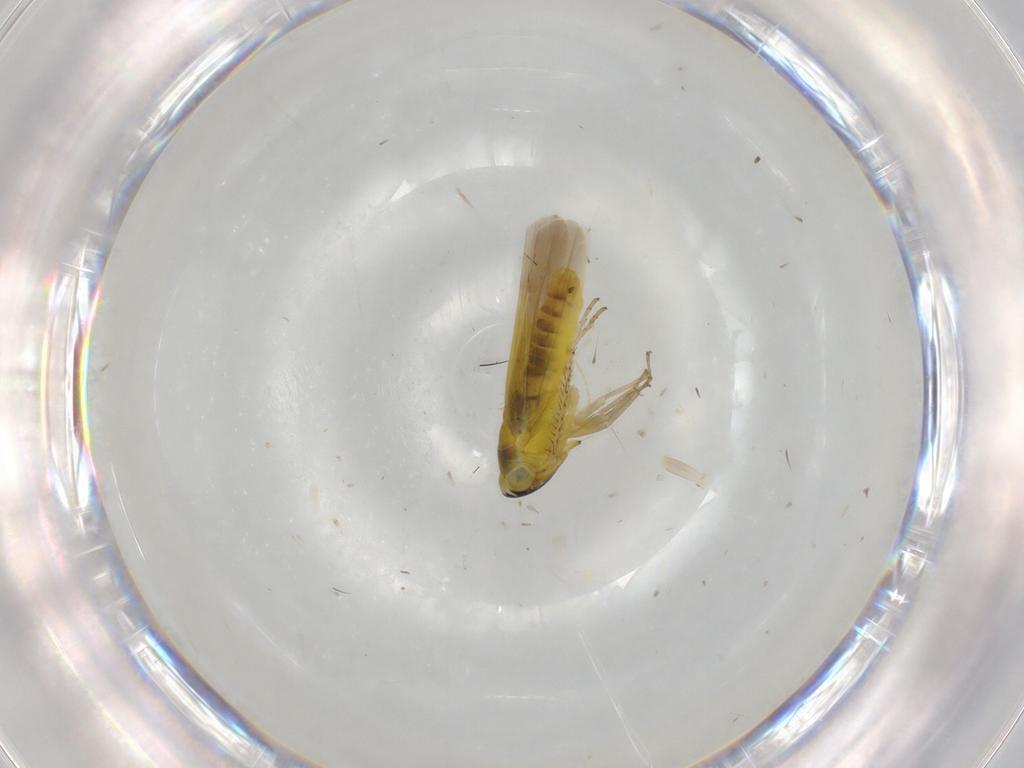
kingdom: Animalia
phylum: Arthropoda
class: Insecta
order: Hemiptera
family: Cicadellidae
